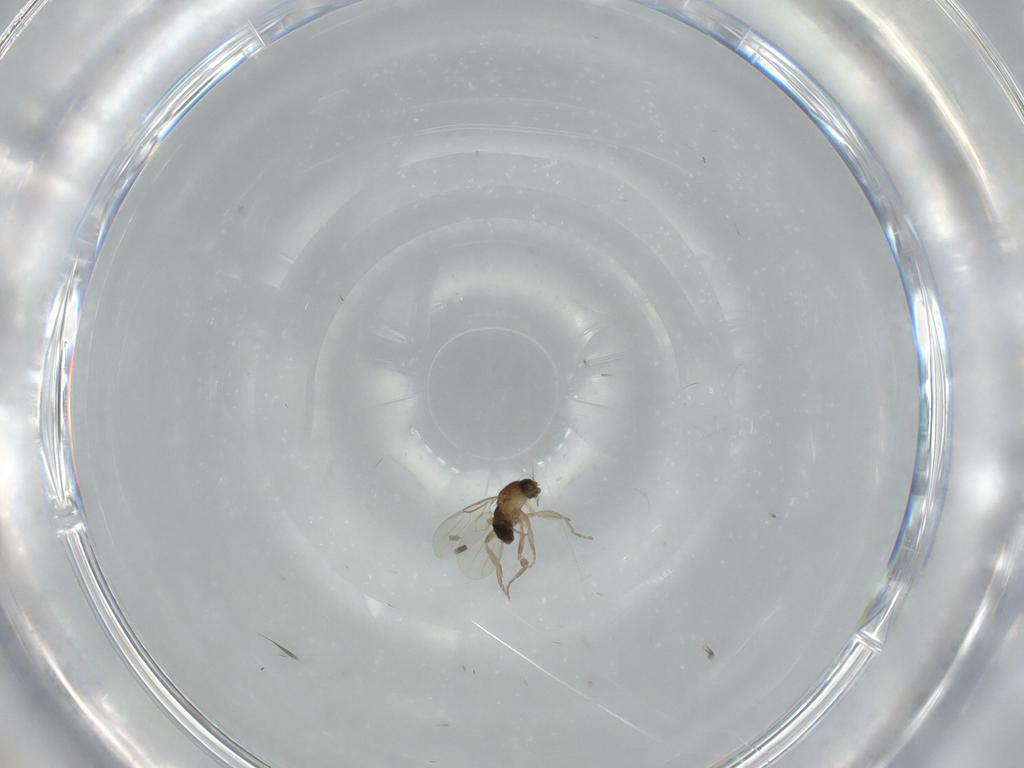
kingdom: Animalia
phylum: Arthropoda
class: Insecta
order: Diptera
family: Phoridae
